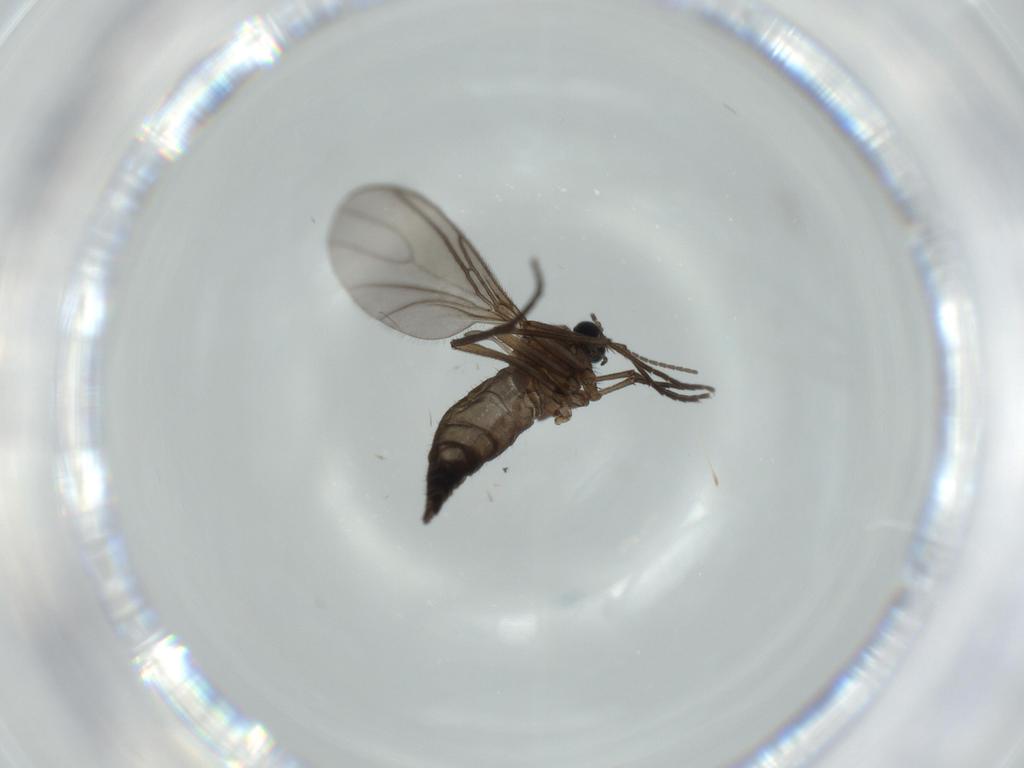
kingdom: Animalia
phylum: Arthropoda
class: Insecta
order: Diptera
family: Sciaridae
